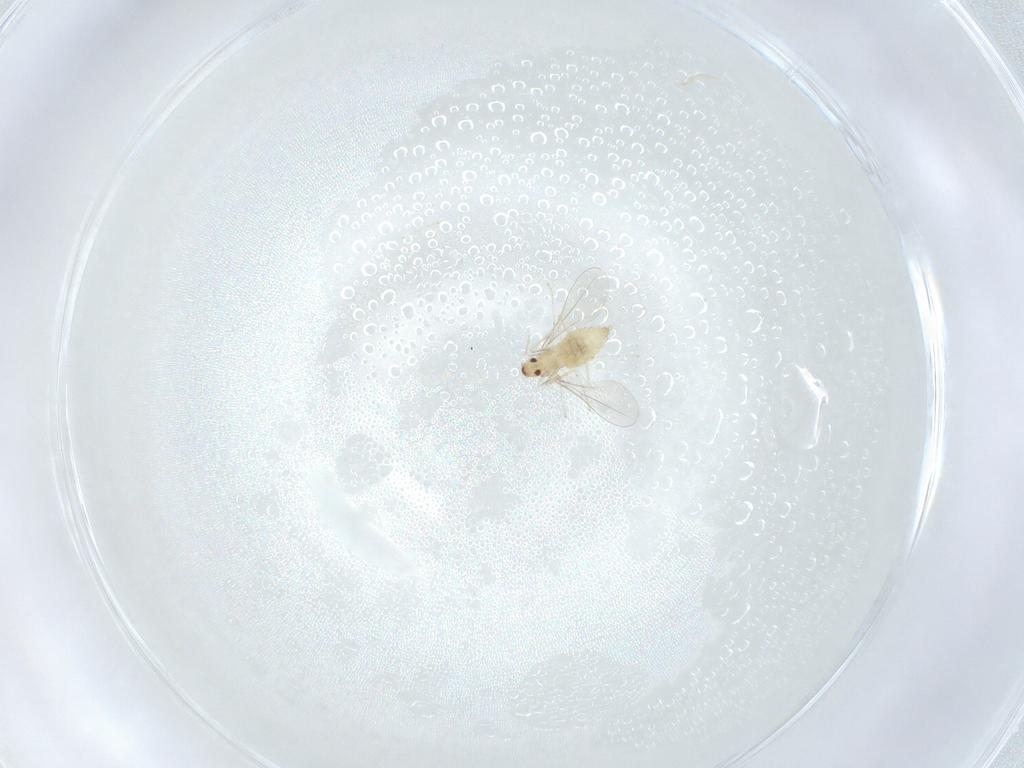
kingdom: Animalia
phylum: Arthropoda
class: Insecta
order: Diptera
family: Cecidomyiidae
